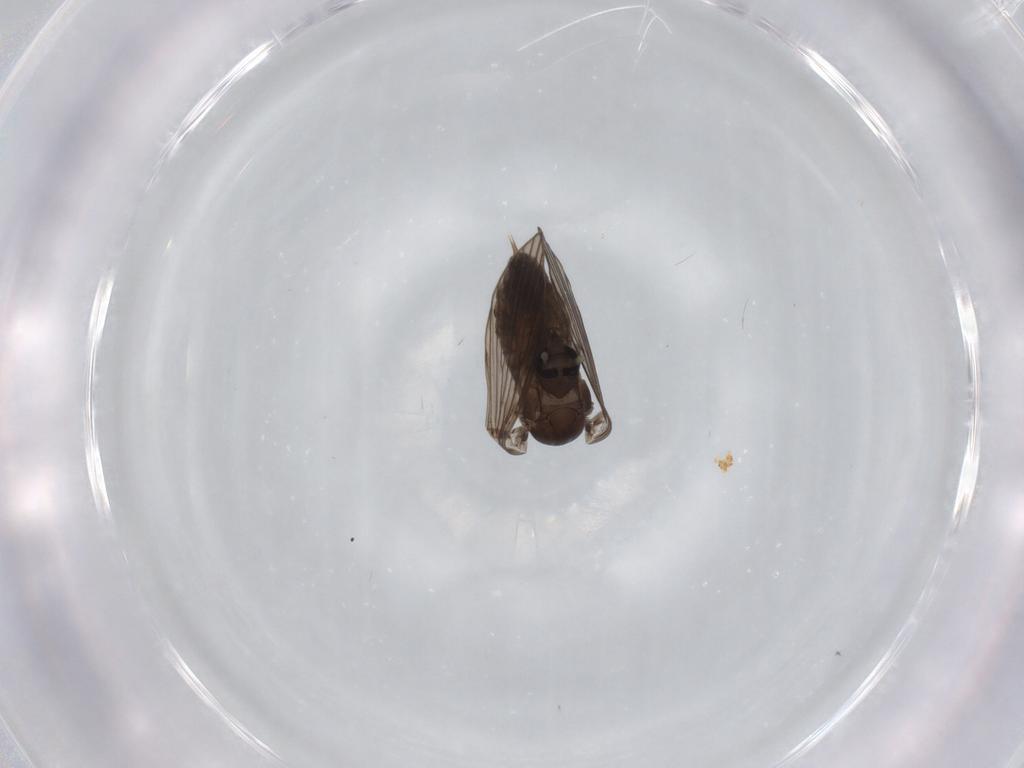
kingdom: Animalia
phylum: Arthropoda
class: Insecta
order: Diptera
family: Psychodidae
